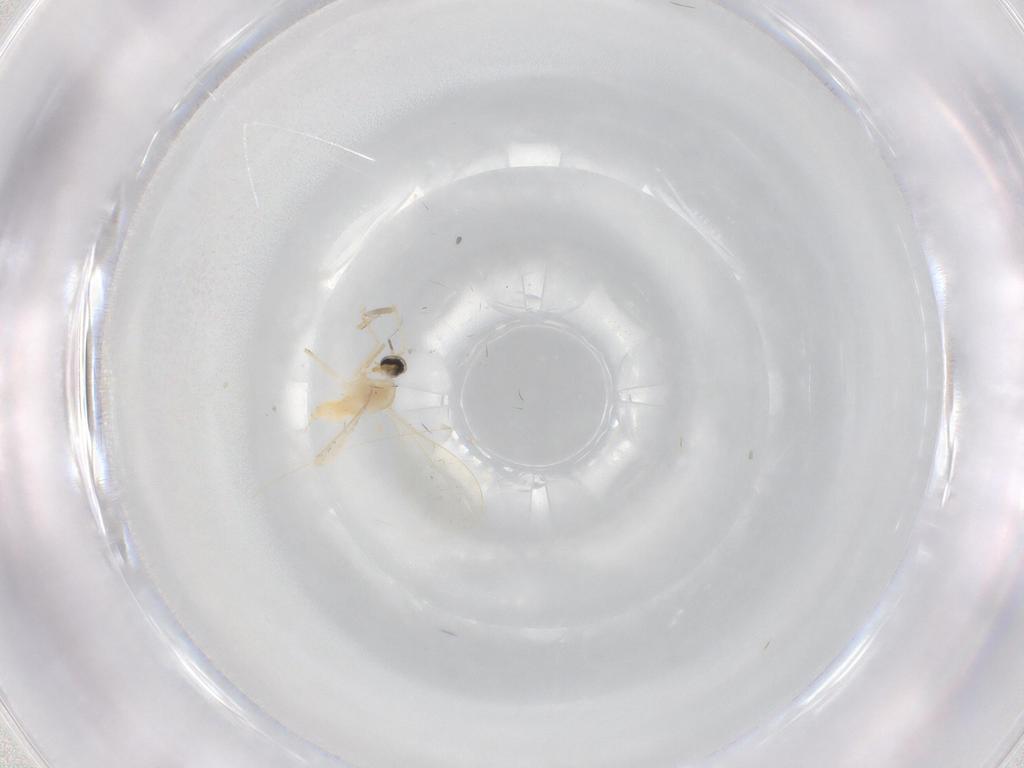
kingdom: Animalia
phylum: Arthropoda
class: Insecta
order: Diptera
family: Cecidomyiidae
